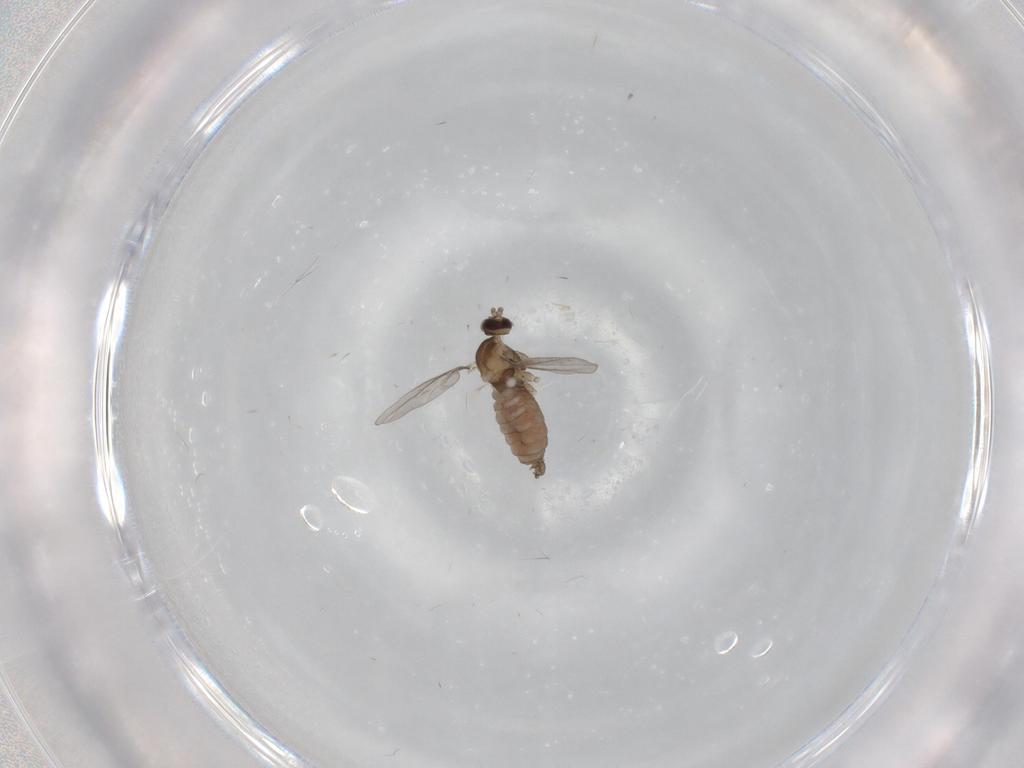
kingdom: Animalia
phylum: Arthropoda
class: Insecta
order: Diptera
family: Cecidomyiidae
